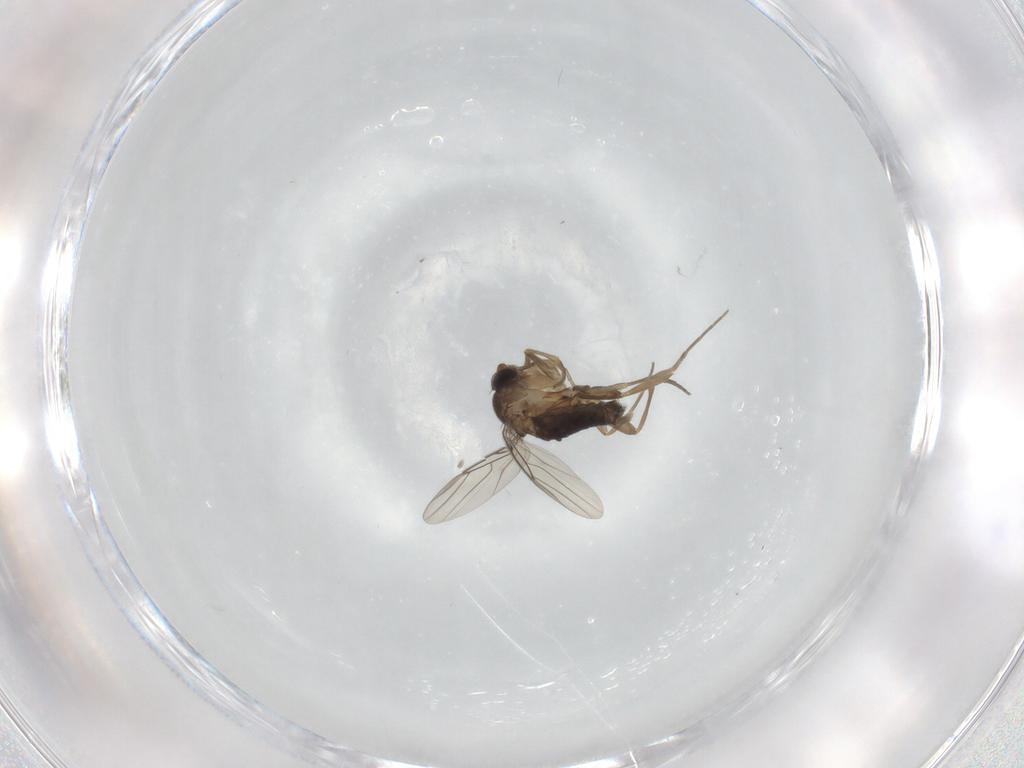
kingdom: Animalia
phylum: Arthropoda
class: Insecta
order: Diptera
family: Phoridae
